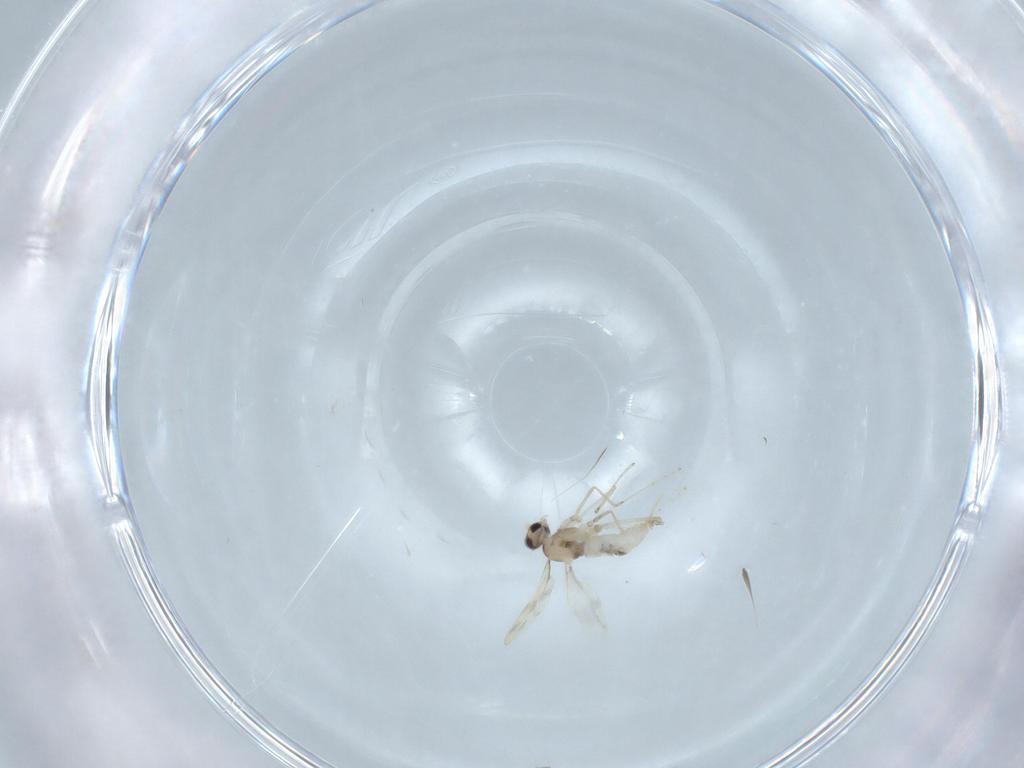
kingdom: Animalia
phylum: Arthropoda
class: Insecta
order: Diptera
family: Cecidomyiidae
